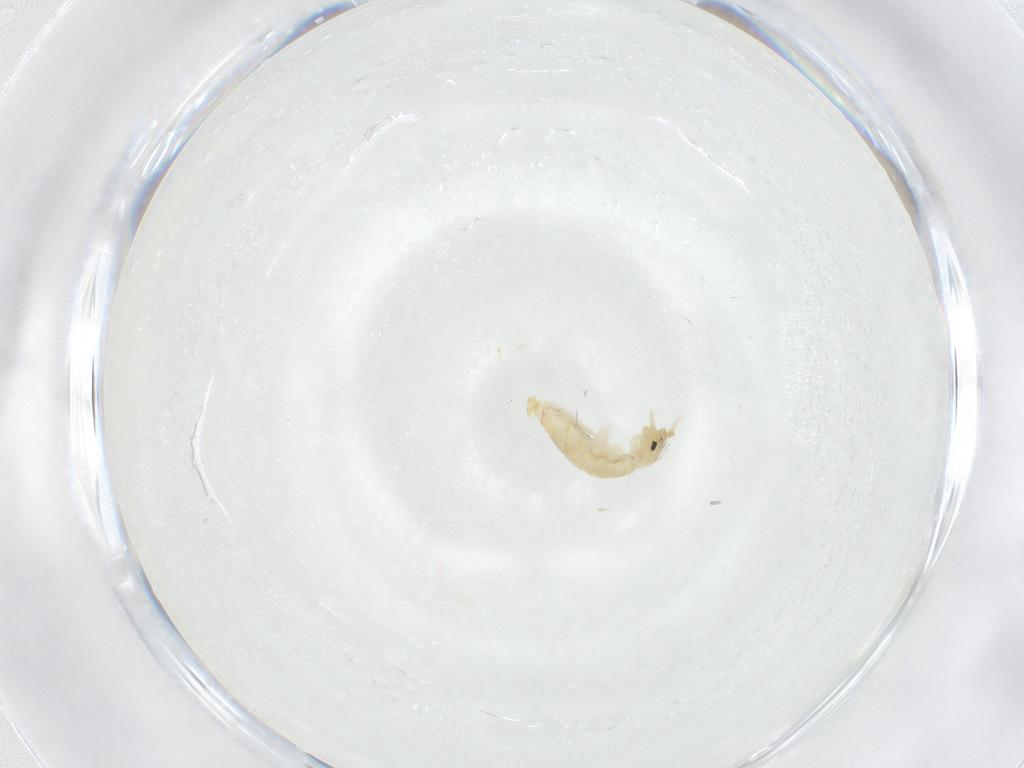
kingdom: Animalia
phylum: Arthropoda
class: Collembola
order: Entomobryomorpha
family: Entomobryidae
